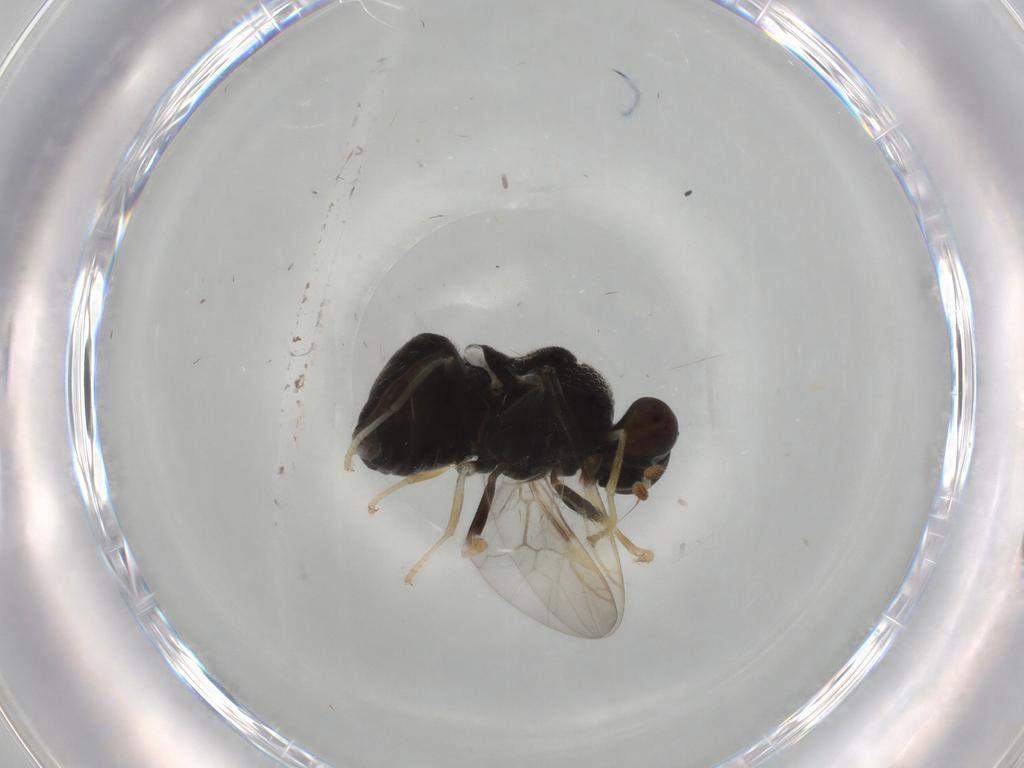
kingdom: Animalia
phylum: Arthropoda
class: Insecta
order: Diptera
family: Stratiomyidae
